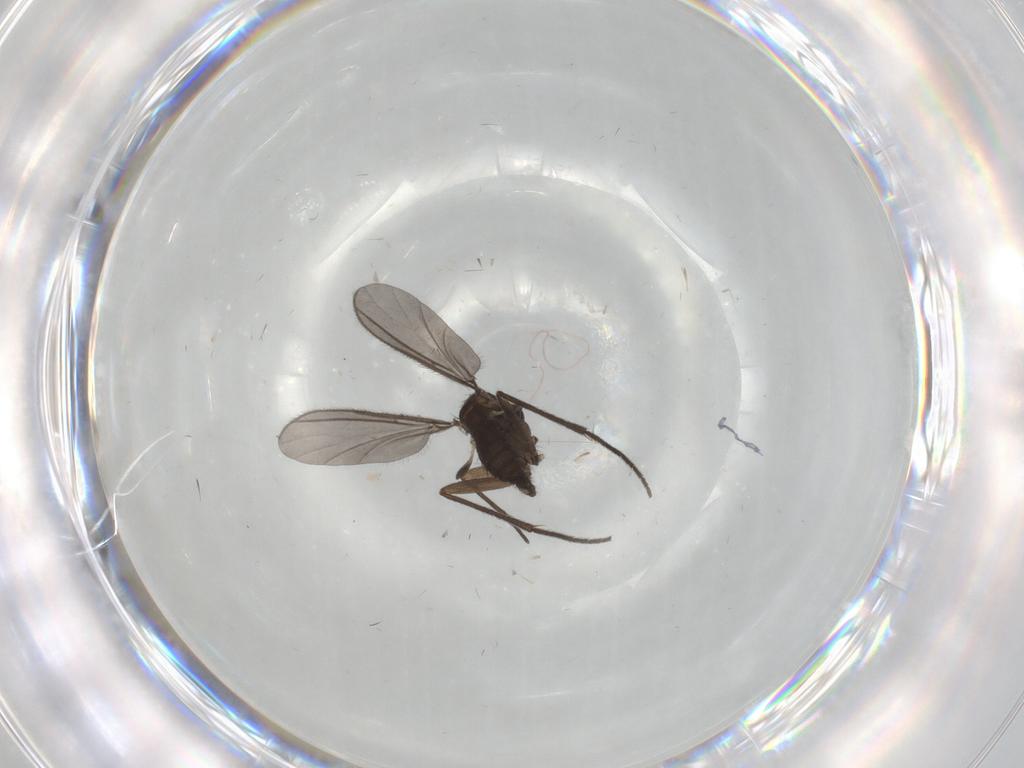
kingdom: Animalia
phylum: Arthropoda
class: Insecta
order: Diptera
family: Sciaridae
